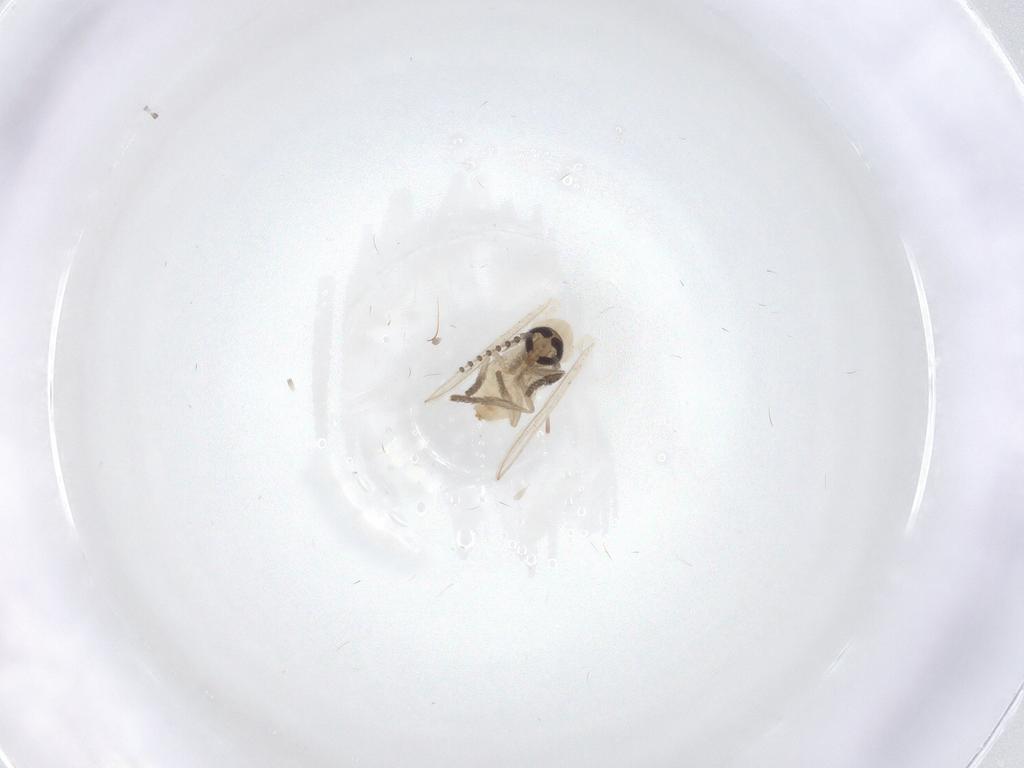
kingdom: Animalia
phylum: Arthropoda
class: Insecta
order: Diptera
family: Psychodidae
